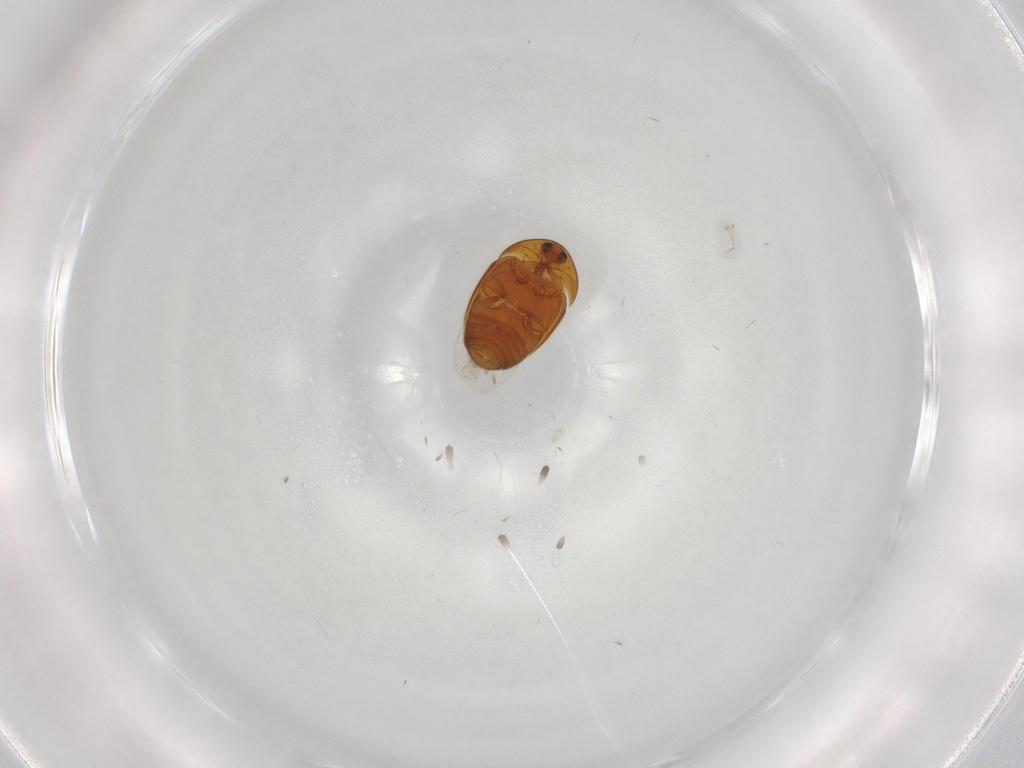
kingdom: Animalia
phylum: Arthropoda
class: Insecta
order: Coleoptera
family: Corylophidae
